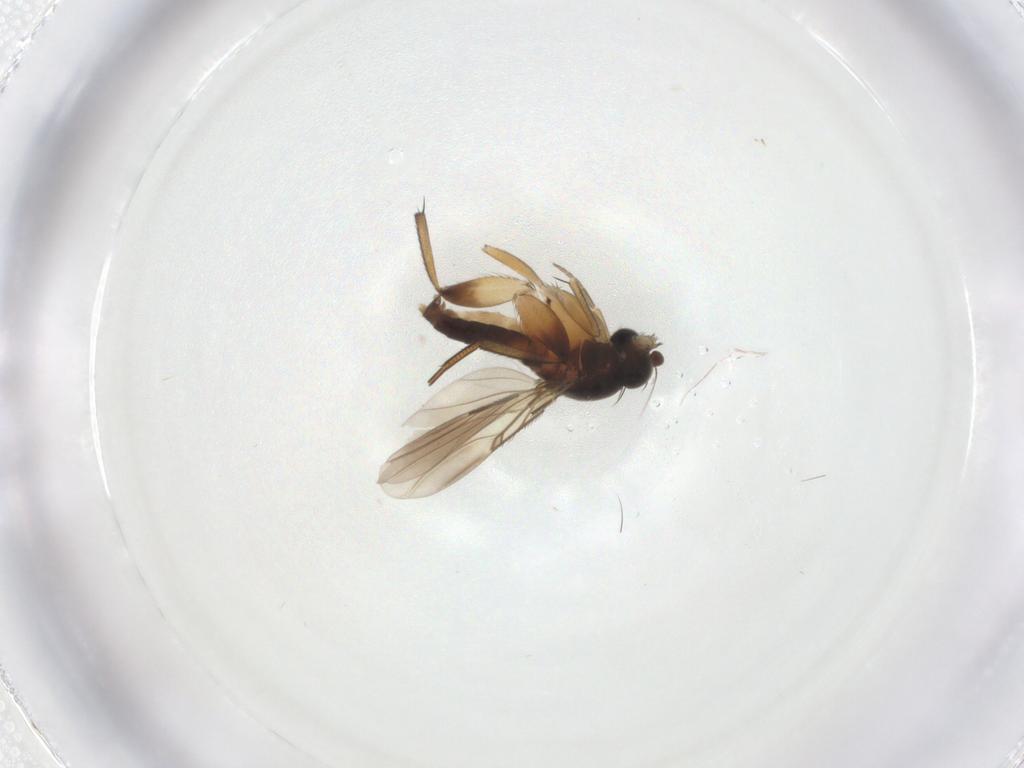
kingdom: Animalia
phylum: Arthropoda
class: Insecta
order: Diptera
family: Phoridae
